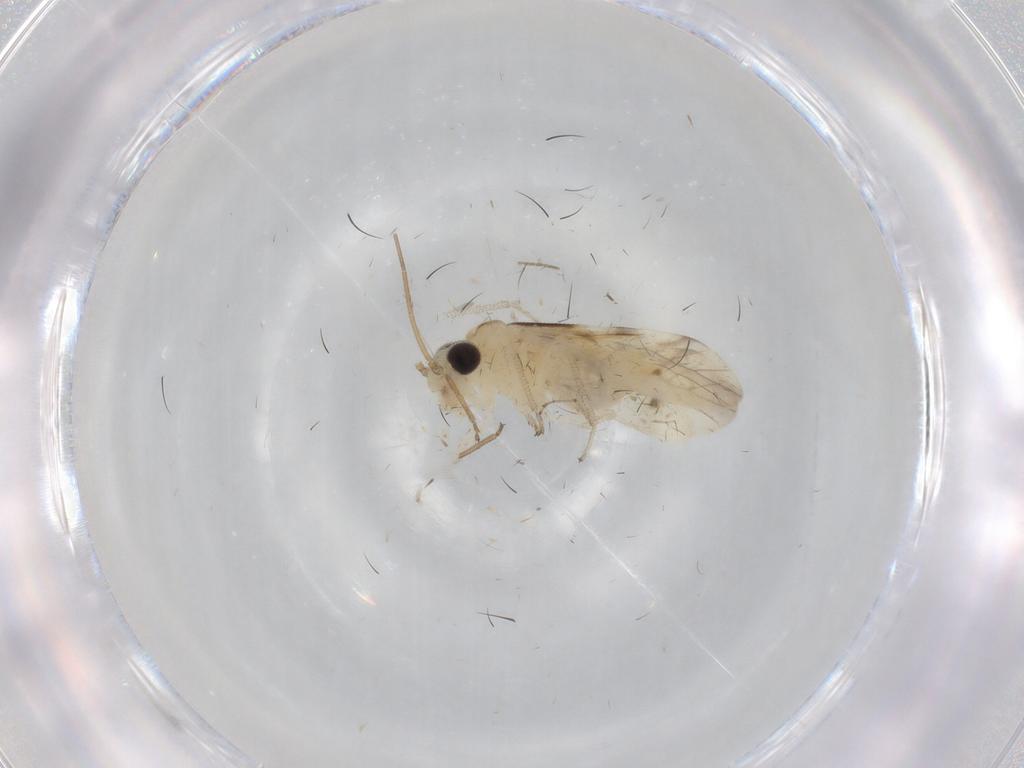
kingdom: Animalia
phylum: Arthropoda
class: Insecta
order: Psocodea
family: Caeciliusidae
